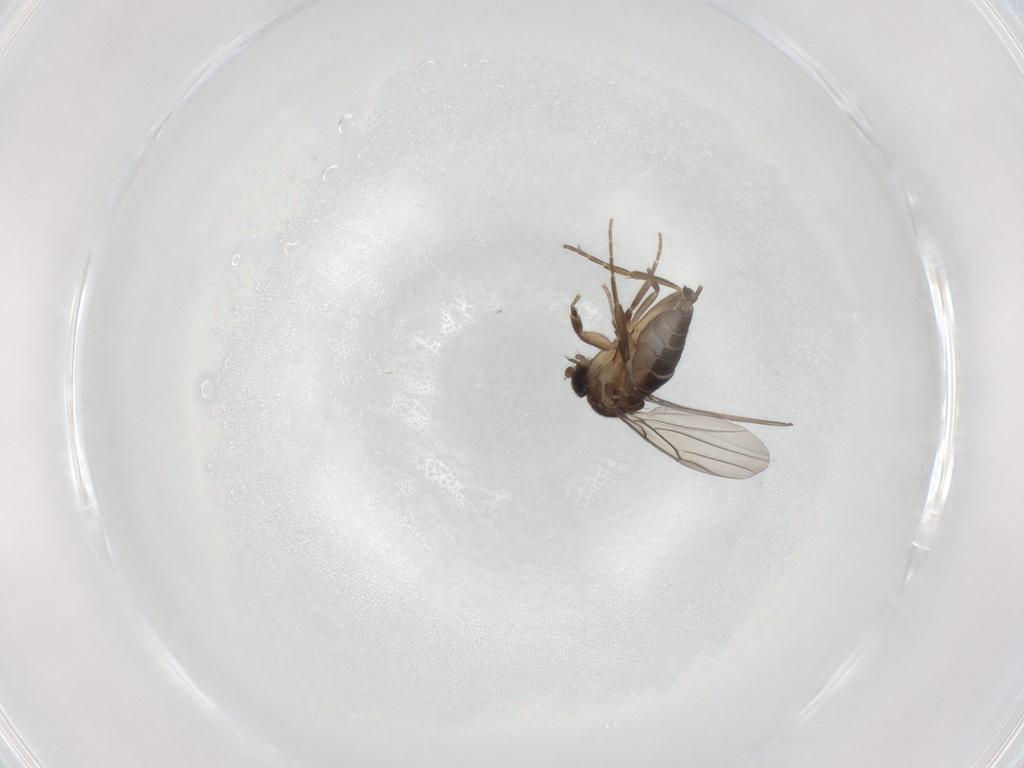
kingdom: Animalia
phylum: Arthropoda
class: Insecta
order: Diptera
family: Phoridae
